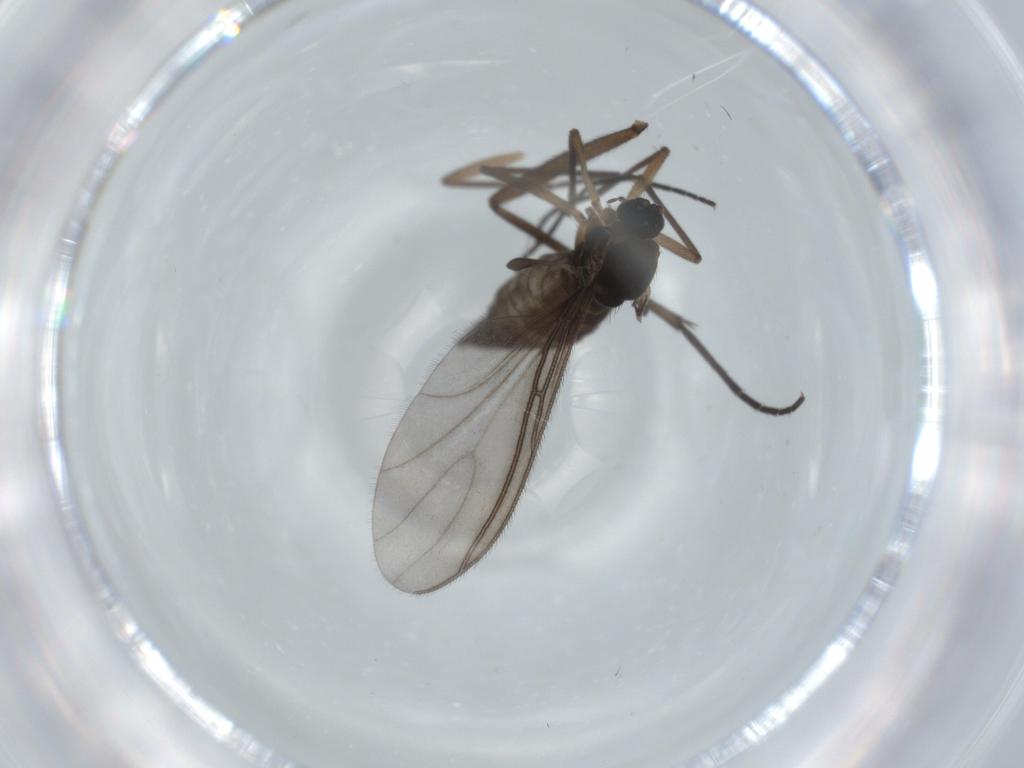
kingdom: Animalia
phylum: Arthropoda
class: Insecta
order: Diptera
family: Sciaridae
